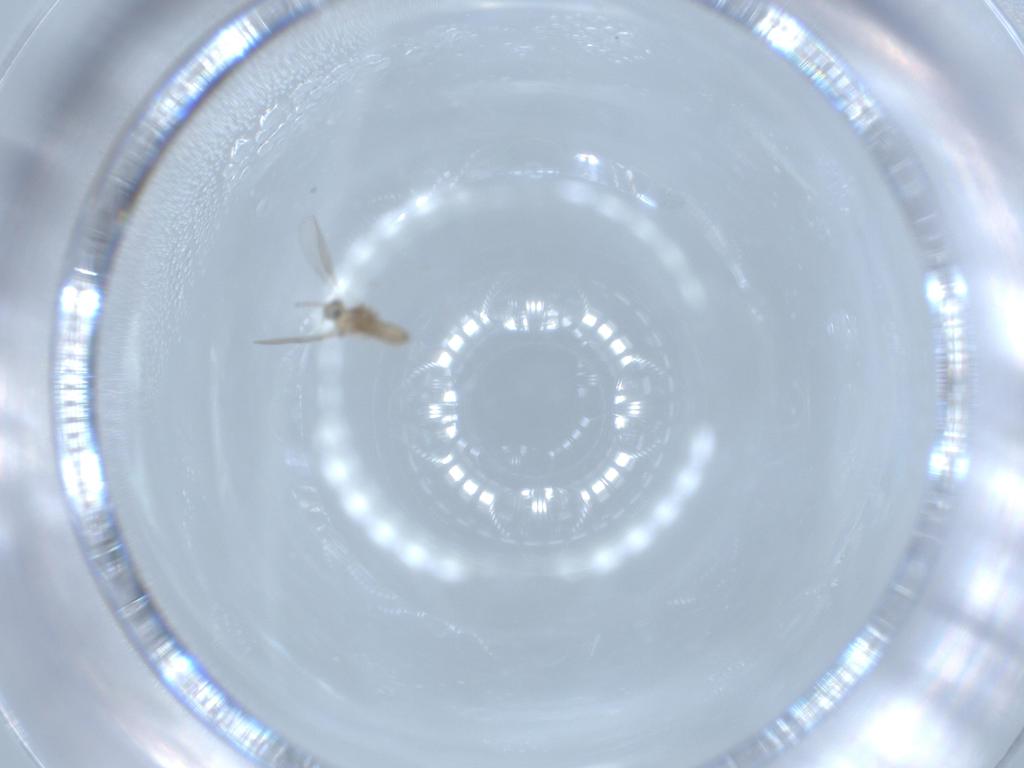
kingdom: Animalia
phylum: Arthropoda
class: Insecta
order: Diptera
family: Cecidomyiidae
